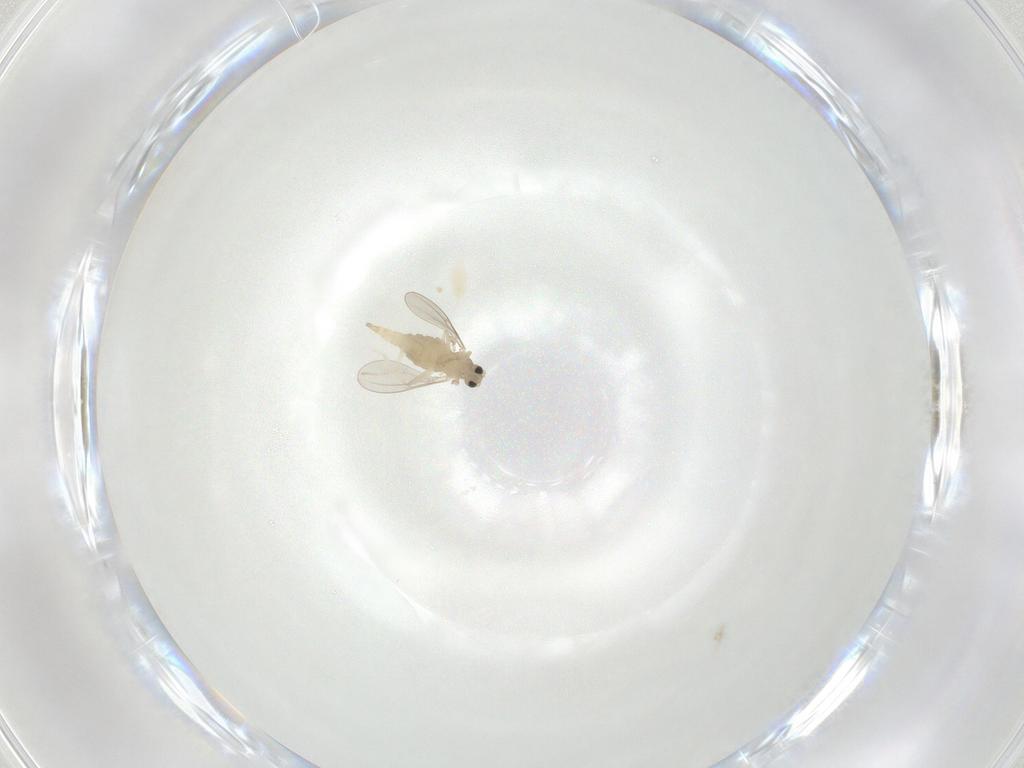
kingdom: Animalia
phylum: Arthropoda
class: Insecta
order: Diptera
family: Cecidomyiidae
